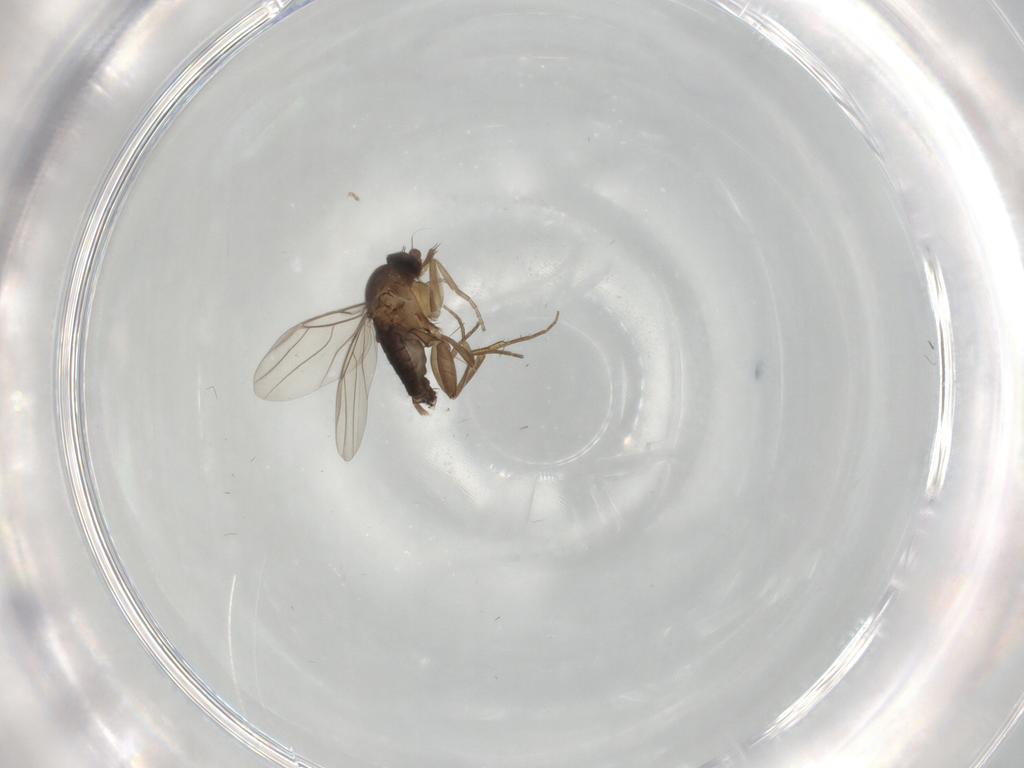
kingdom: Animalia
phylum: Arthropoda
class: Insecta
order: Diptera
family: Phoridae
